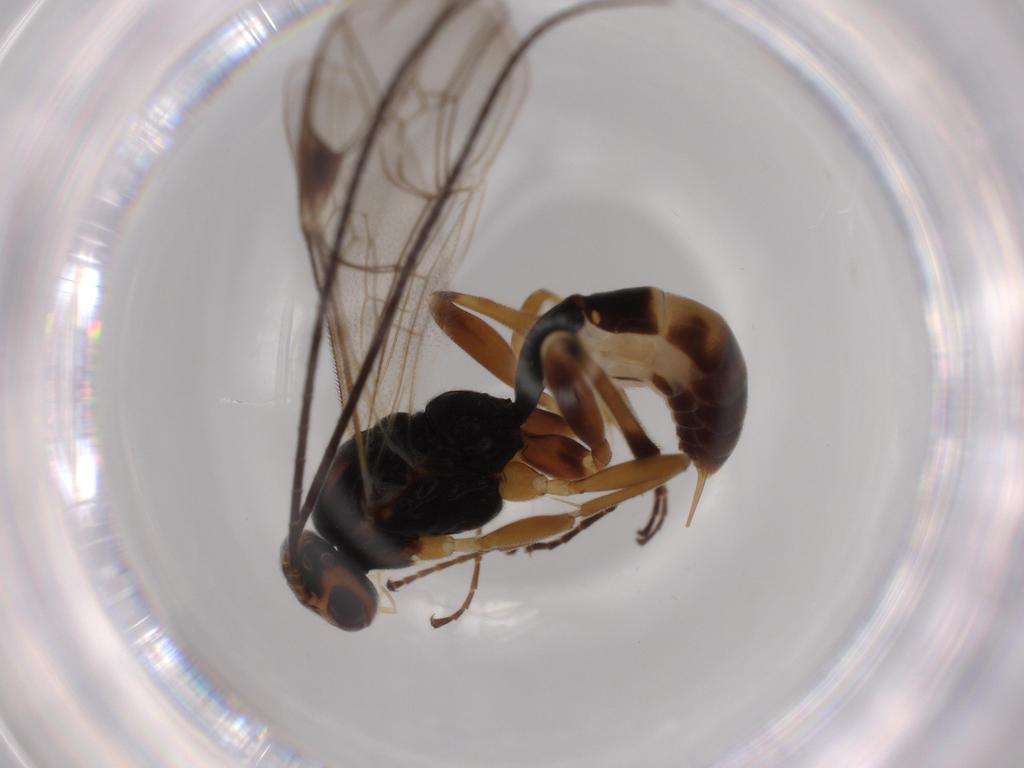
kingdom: Animalia
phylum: Arthropoda
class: Insecta
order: Hymenoptera
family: Ichneumonidae
